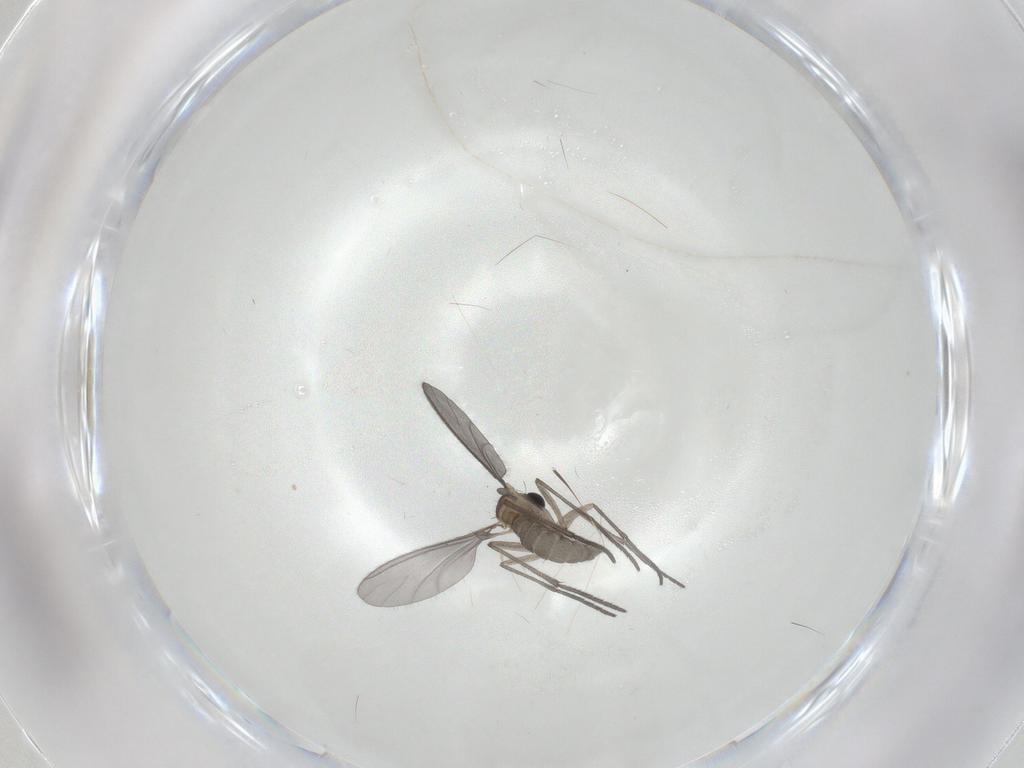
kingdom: Animalia
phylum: Arthropoda
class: Insecta
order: Diptera
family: Sciaridae
